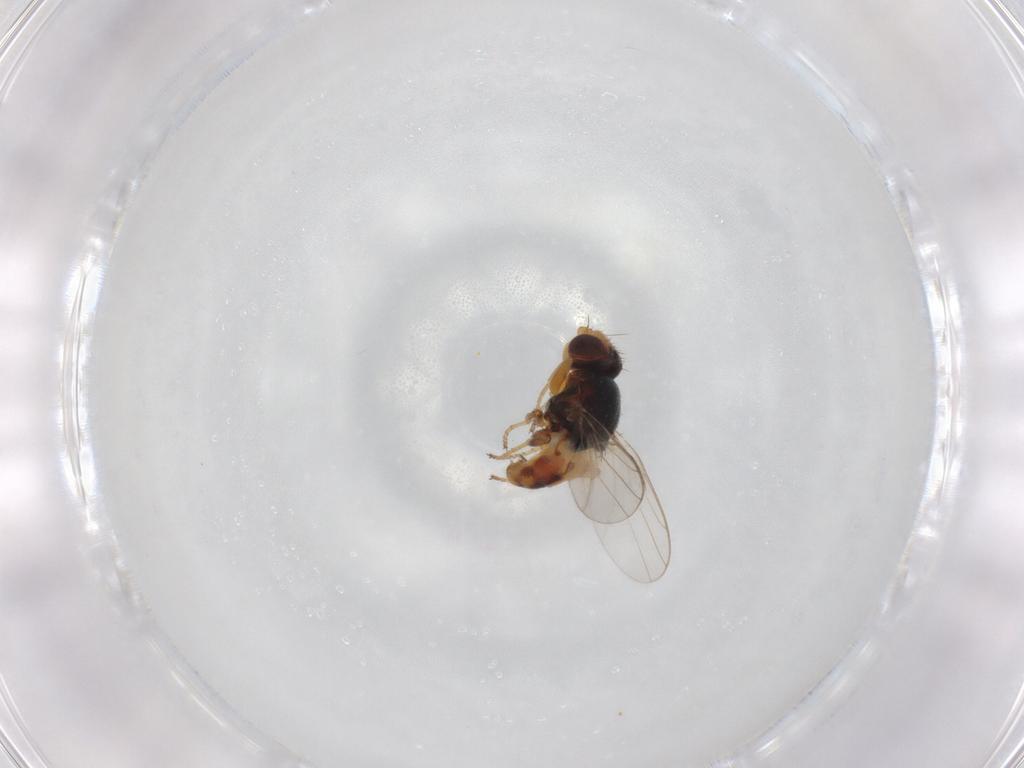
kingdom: Animalia
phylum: Arthropoda
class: Insecta
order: Diptera
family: Chloropidae
